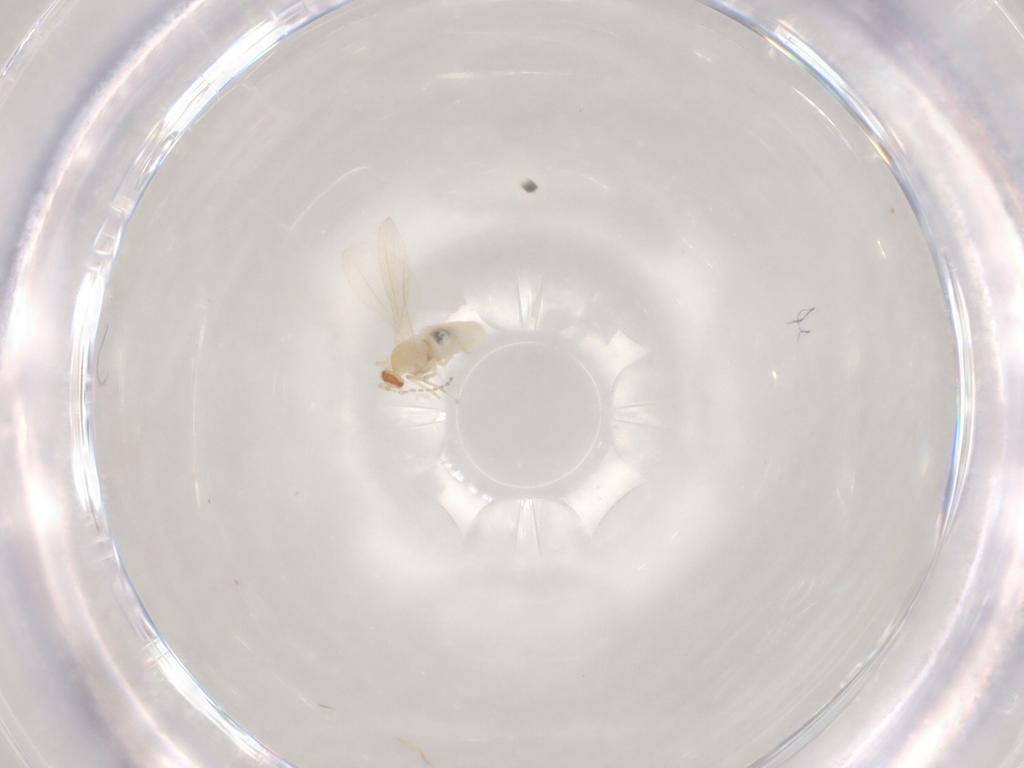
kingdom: Animalia
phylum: Arthropoda
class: Insecta
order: Diptera
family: Cecidomyiidae
